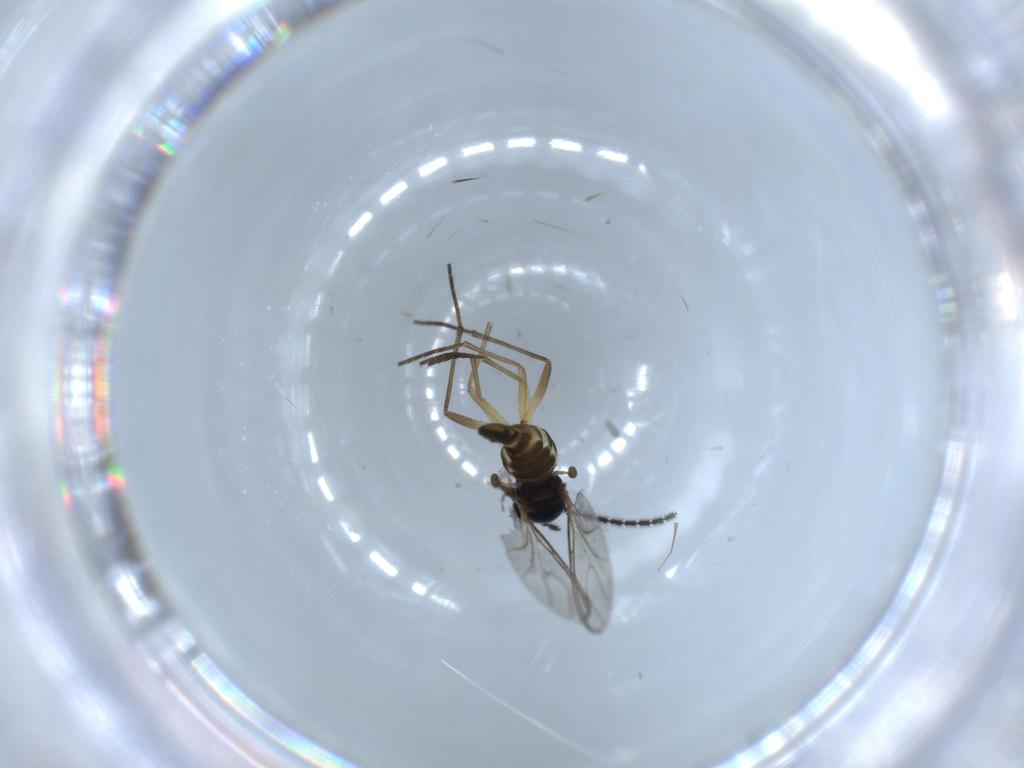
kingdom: Animalia
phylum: Arthropoda
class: Insecta
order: Diptera
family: Sciaridae
